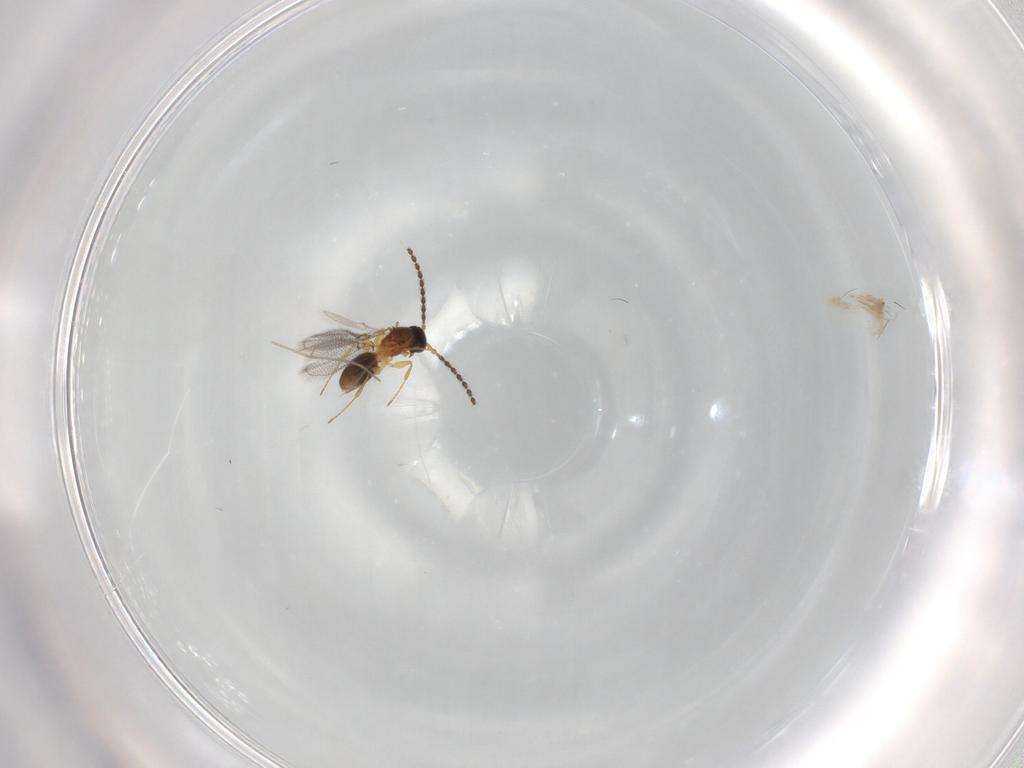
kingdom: Animalia
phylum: Arthropoda
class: Insecta
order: Hymenoptera
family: Figitidae
